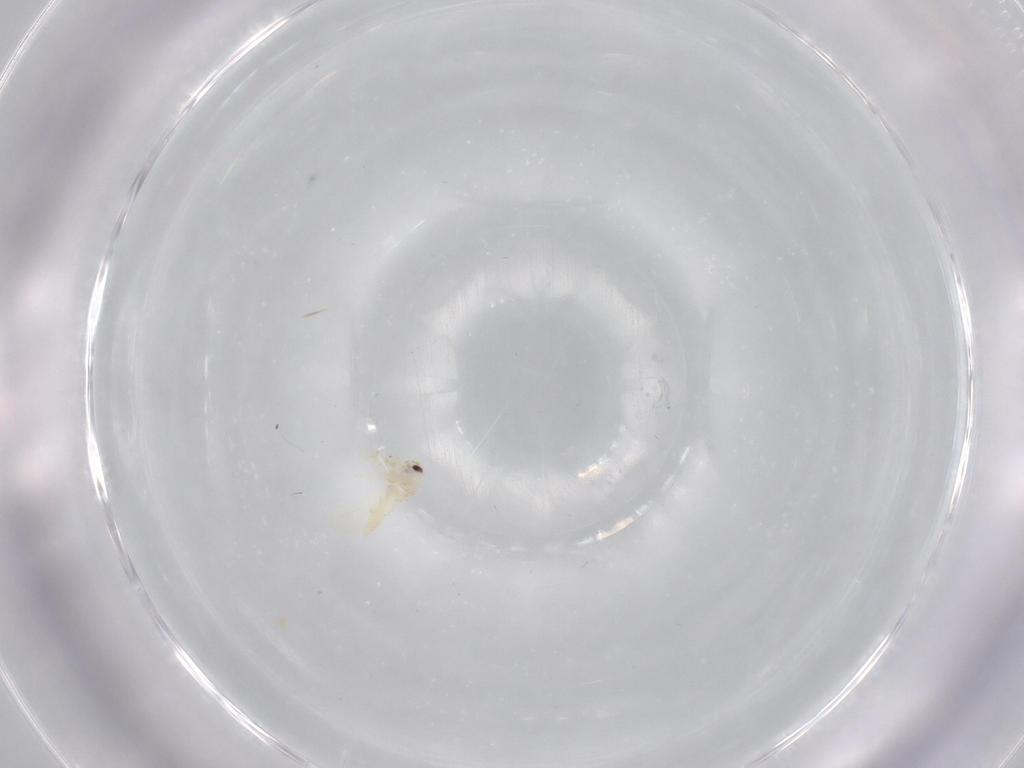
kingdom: Animalia
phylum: Arthropoda
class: Insecta
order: Hemiptera
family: Aleyrodidae
